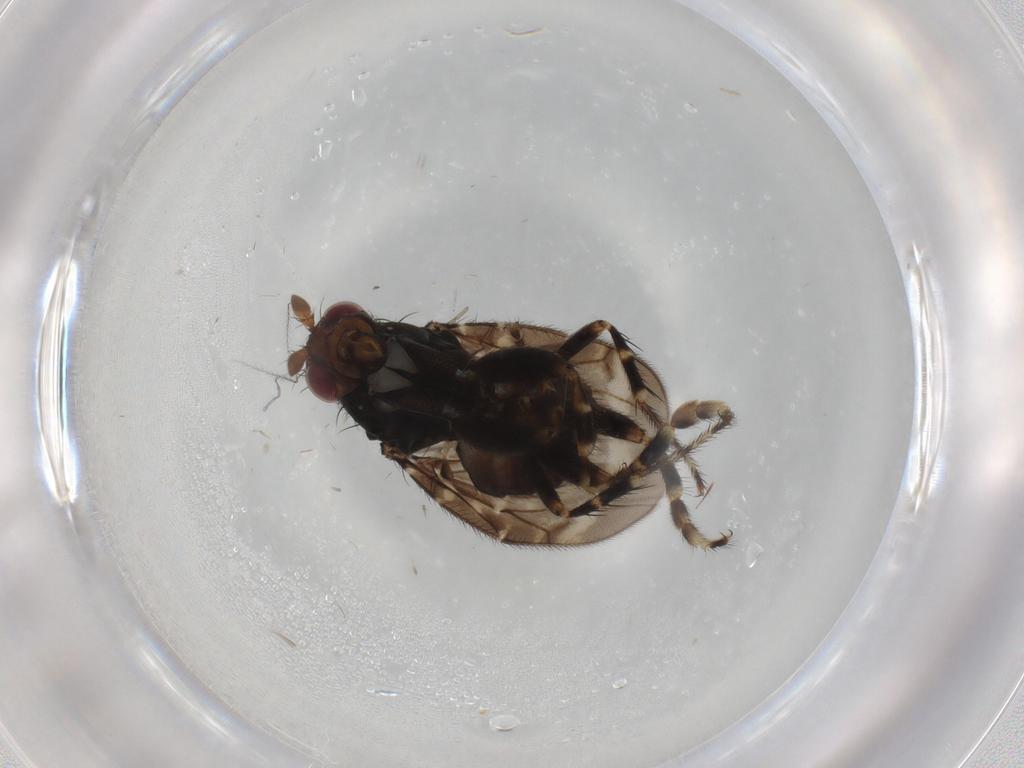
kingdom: Animalia
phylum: Arthropoda
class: Insecta
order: Diptera
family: Sphaeroceridae
